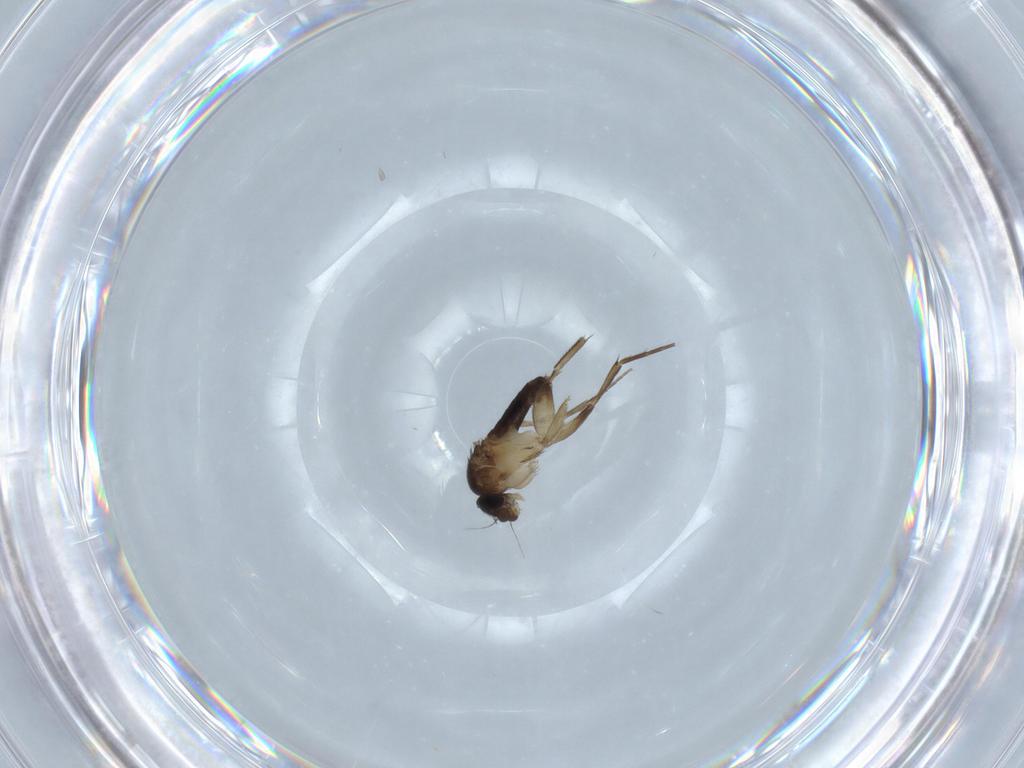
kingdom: Animalia
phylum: Arthropoda
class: Insecta
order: Diptera
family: Phoridae
